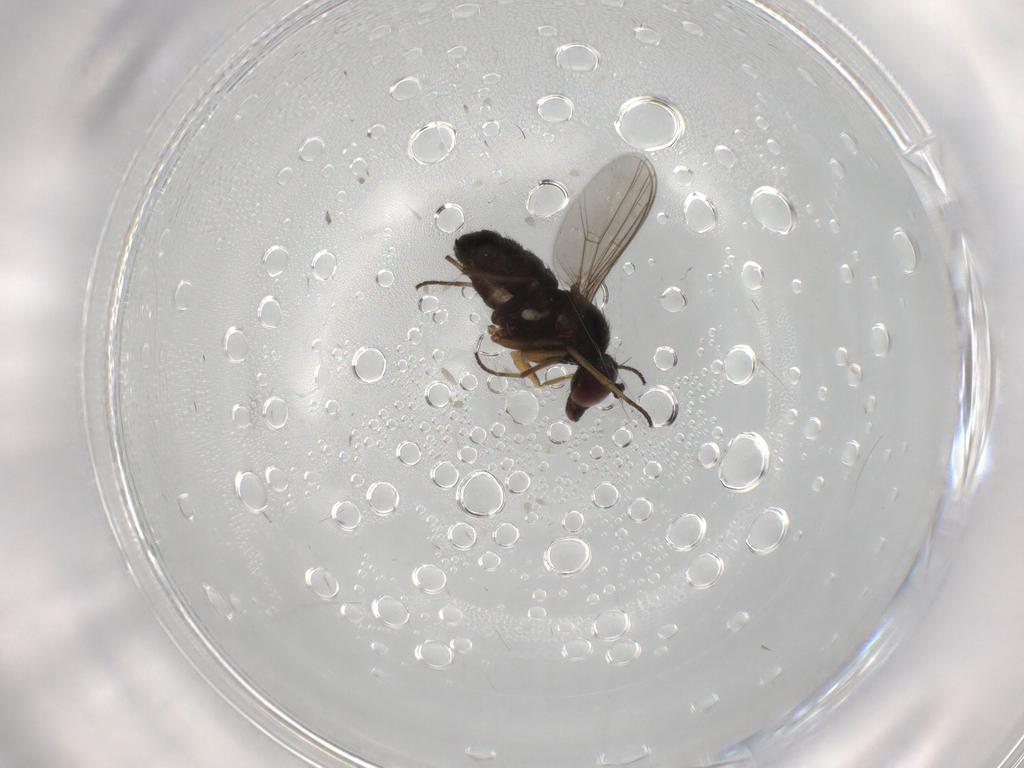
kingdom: Animalia
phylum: Arthropoda
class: Insecta
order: Diptera
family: Dolichopodidae
